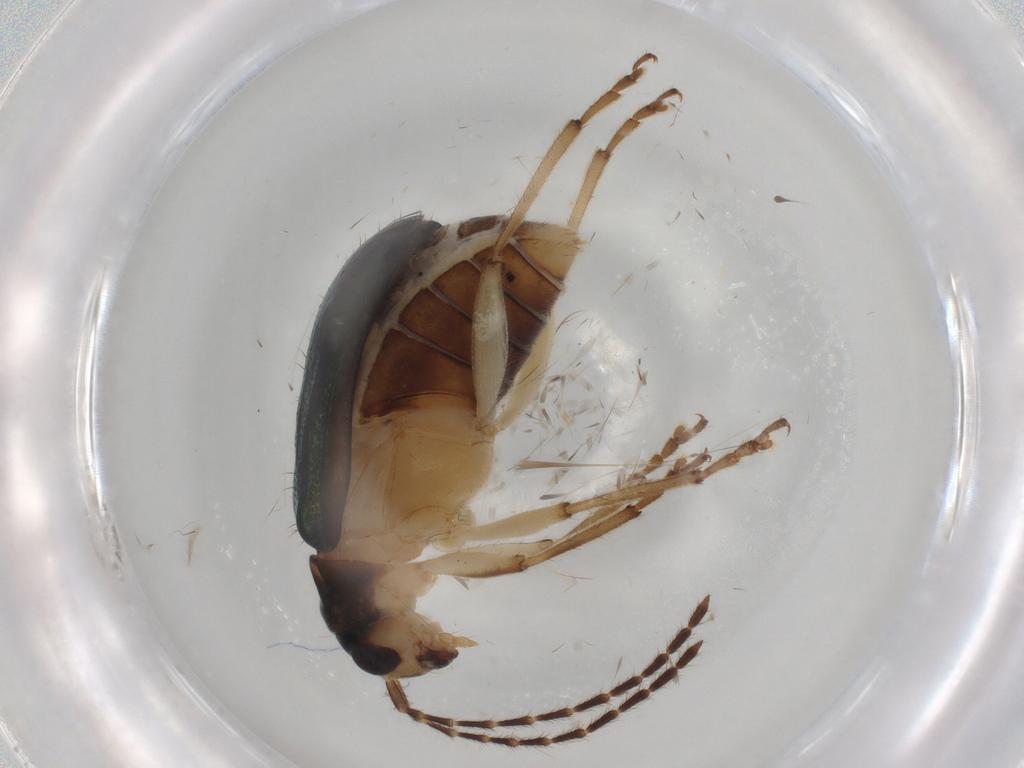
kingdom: Animalia
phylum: Arthropoda
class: Insecta
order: Coleoptera
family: Chrysomelidae
